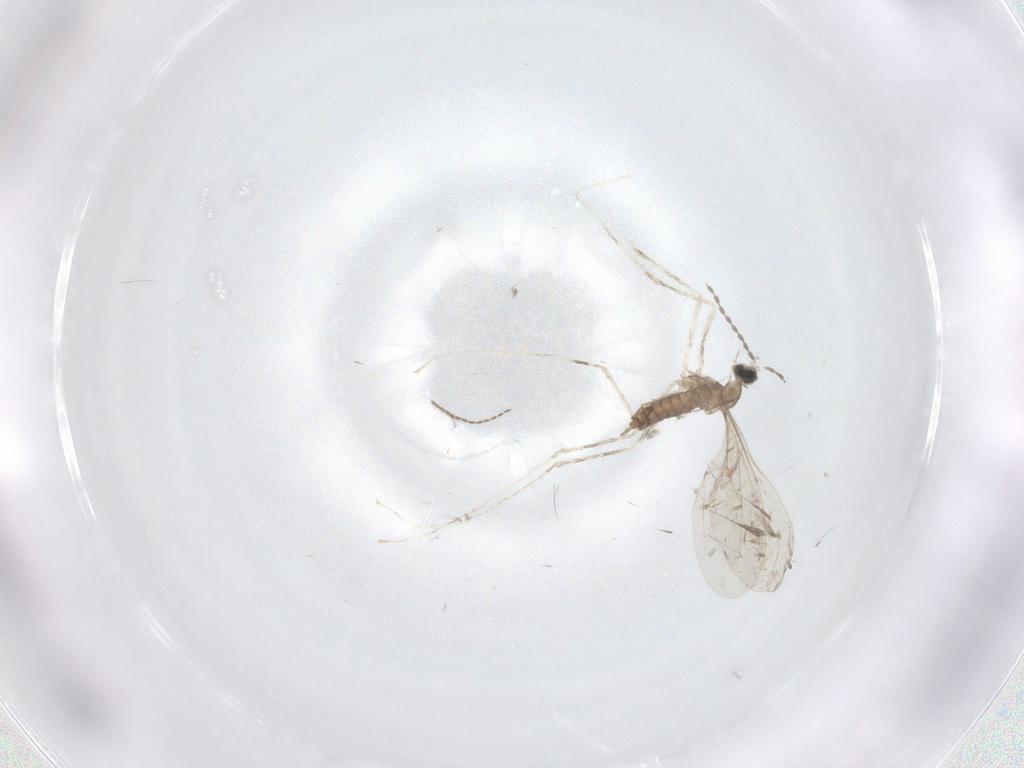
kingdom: Animalia
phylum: Arthropoda
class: Insecta
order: Diptera
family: Cecidomyiidae
